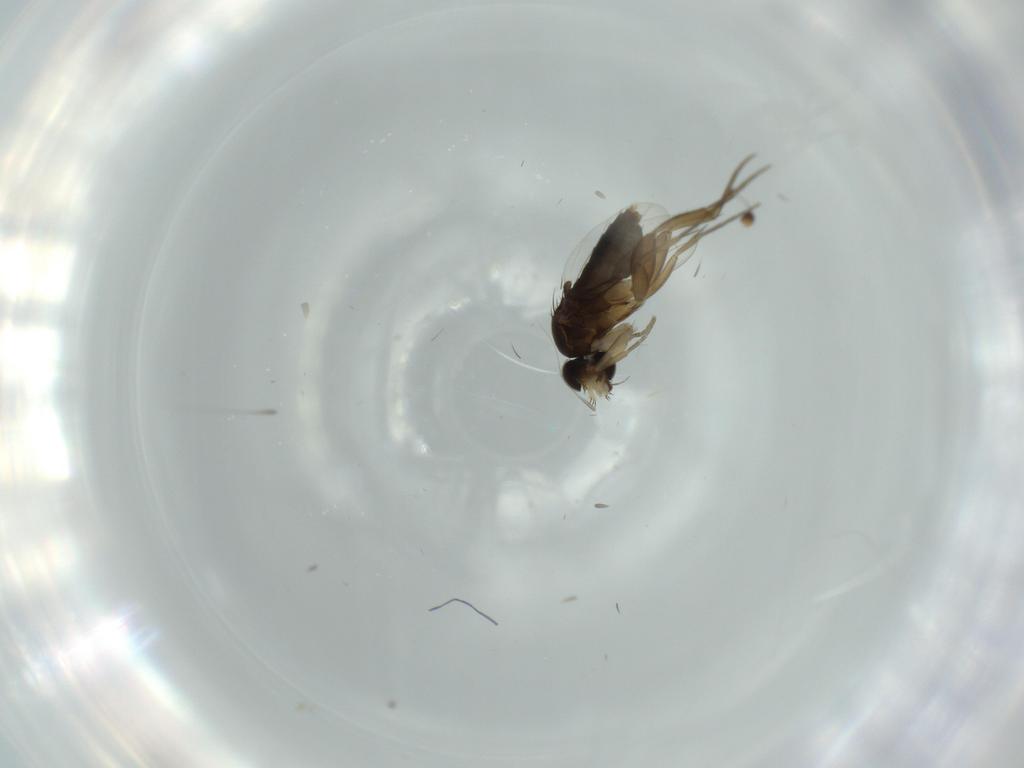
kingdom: Animalia
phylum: Arthropoda
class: Insecta
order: Diptera
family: Phoridae
